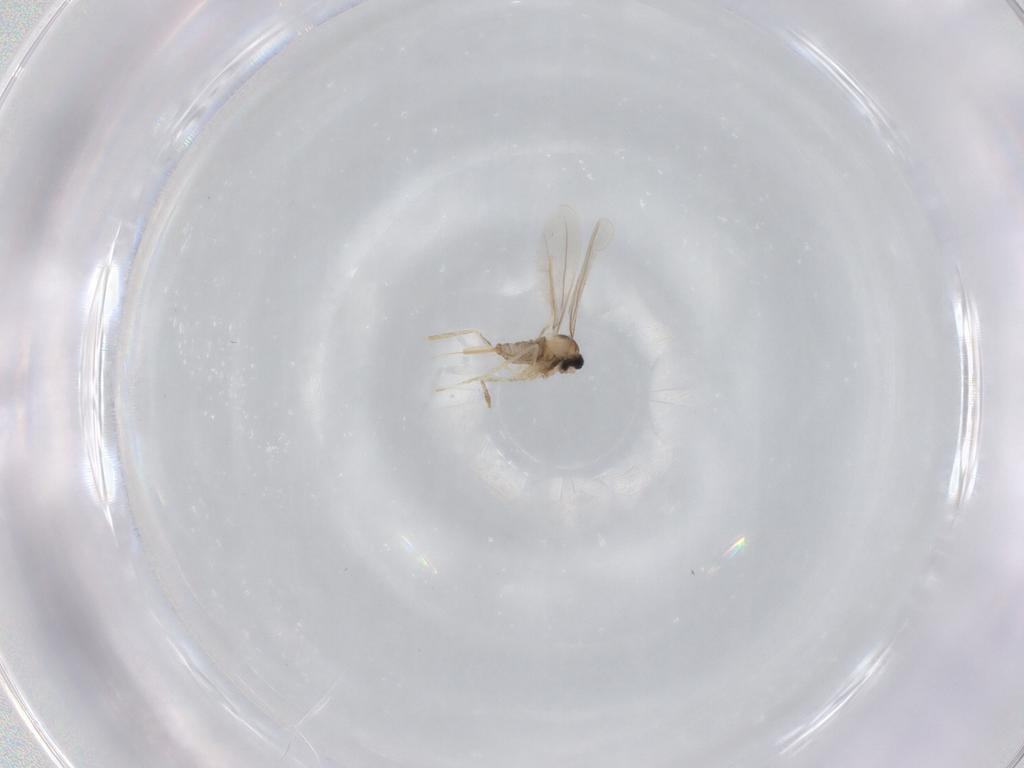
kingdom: Animalia
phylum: Arthropoda
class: Insecta
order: Diptera
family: Cecidomyiidae
